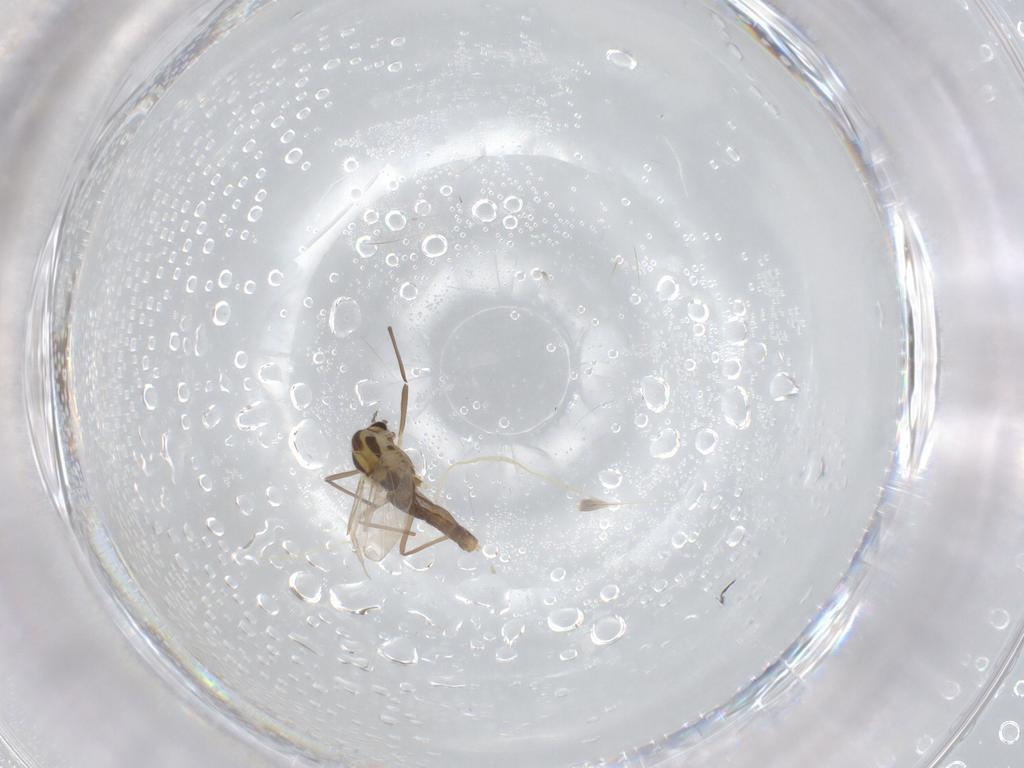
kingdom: Animalia
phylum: Arthropoda
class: Insecta
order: Diptera
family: Chironomidae
